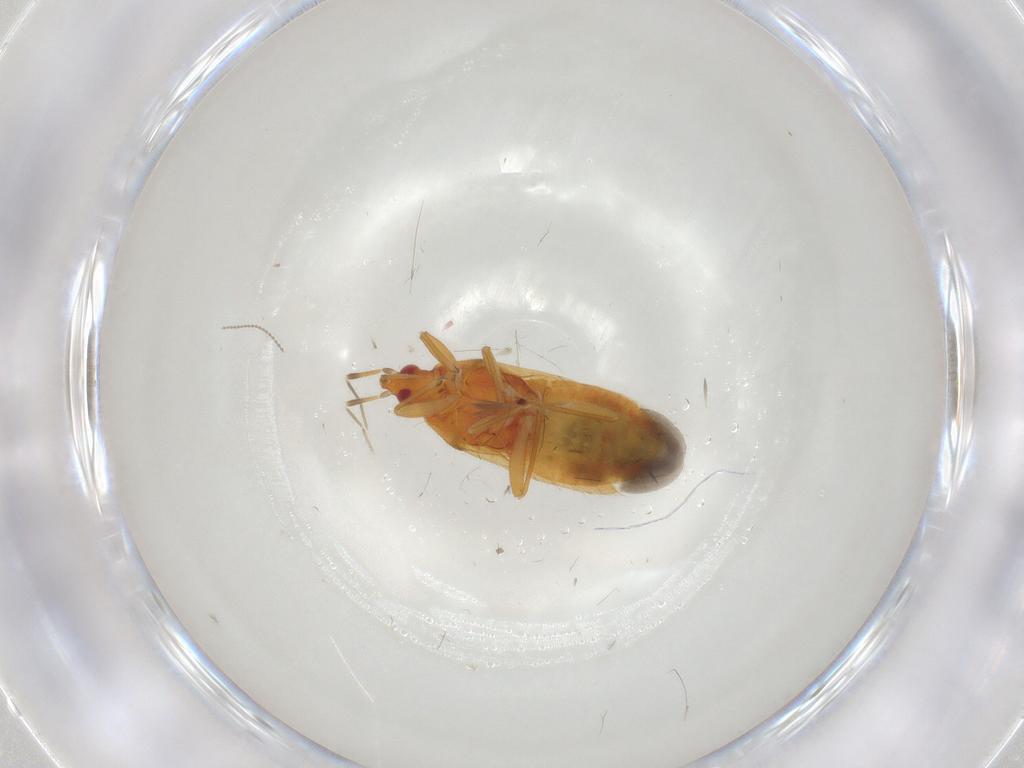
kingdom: Animalia
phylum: Arthropoda
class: Insecta
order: Hemiptera
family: Anthocoridae
